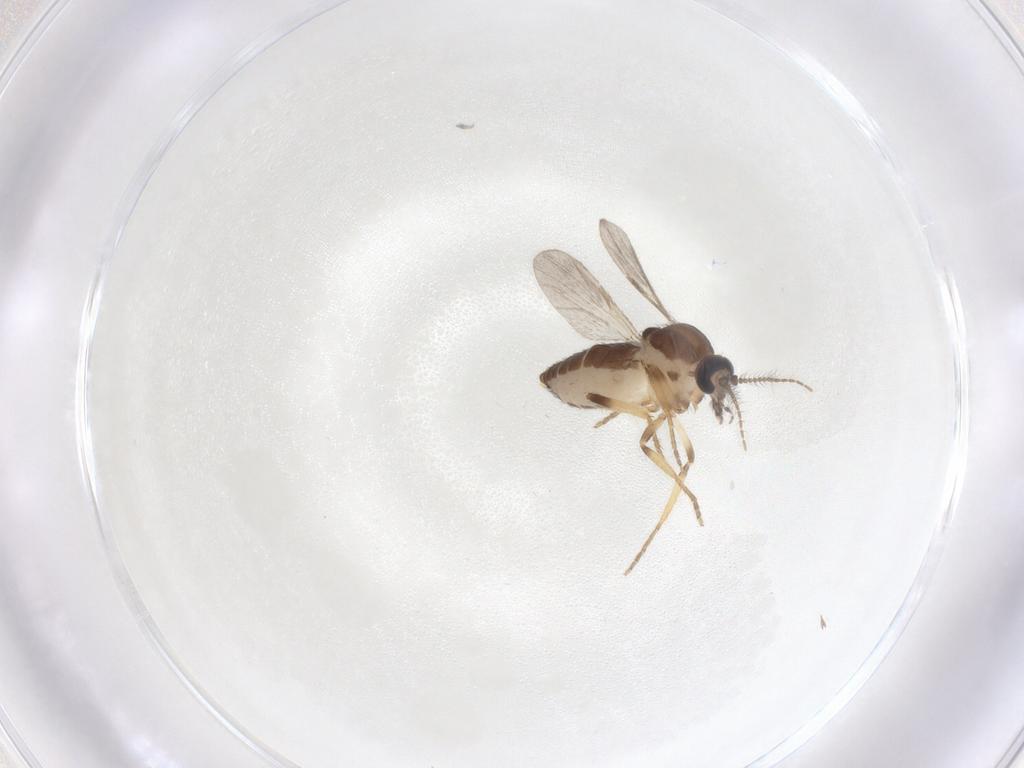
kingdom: Animalia
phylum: Arthropoda
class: Insecta
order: Diptera
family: Ceratopogonidae
